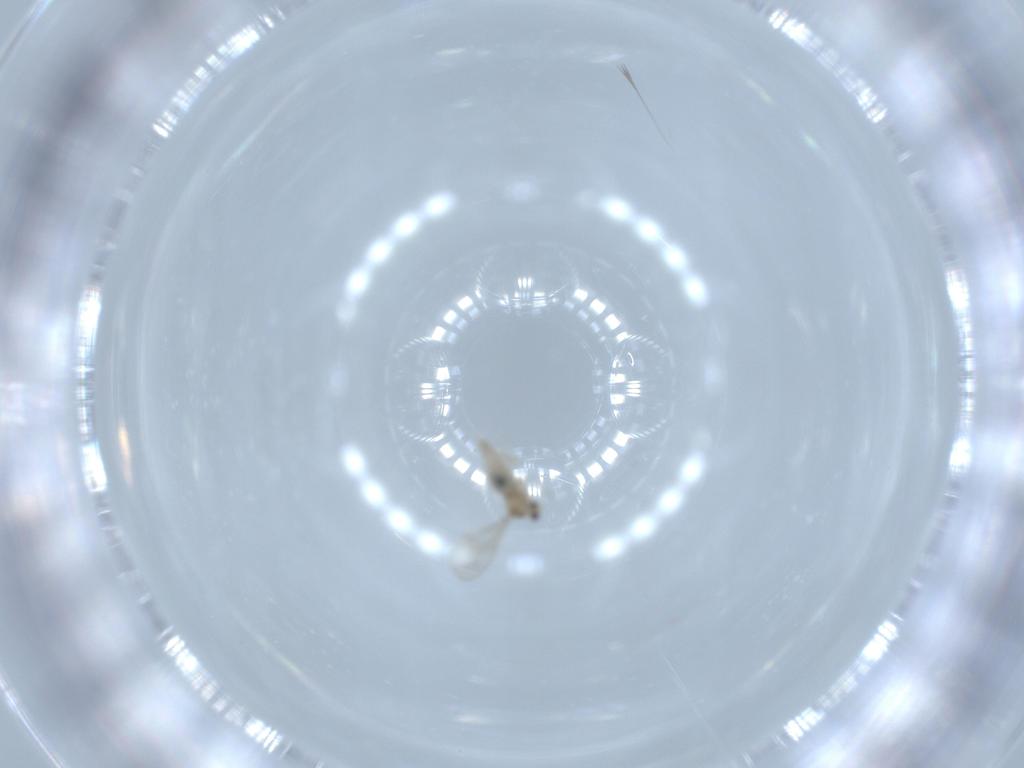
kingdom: Animalia
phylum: Arthropoda
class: Insecta
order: Diptera
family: Cecidomyiidae
